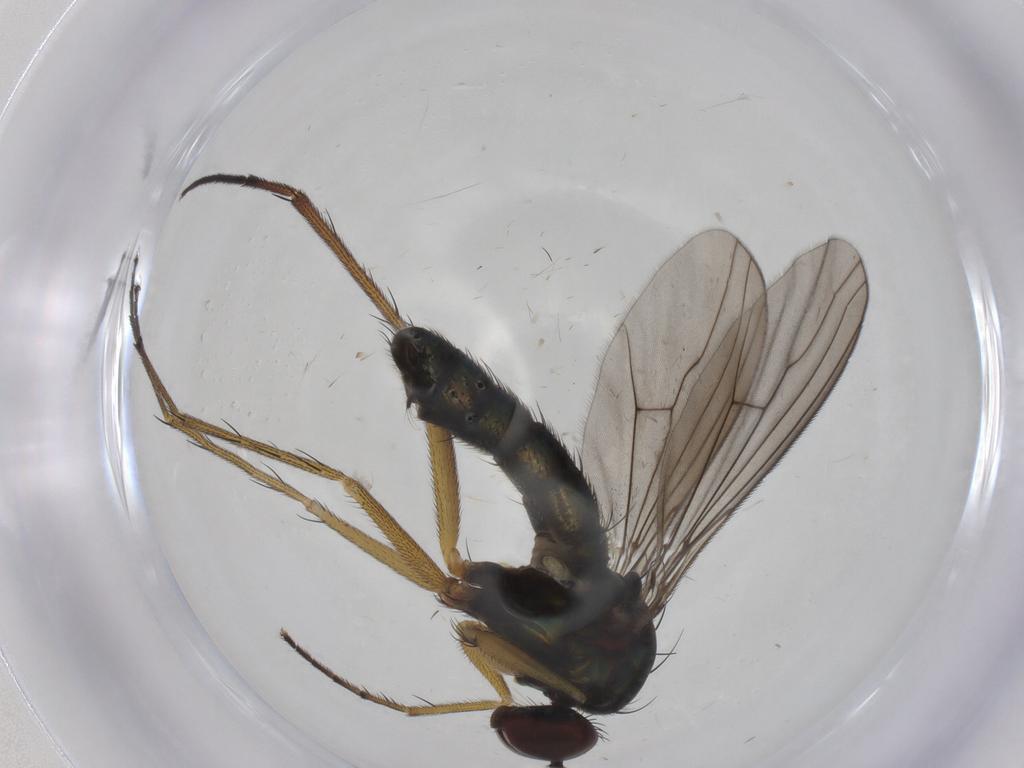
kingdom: Animalia
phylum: Arthropoda
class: Insecta
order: Diptera
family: Dolichopodidae
